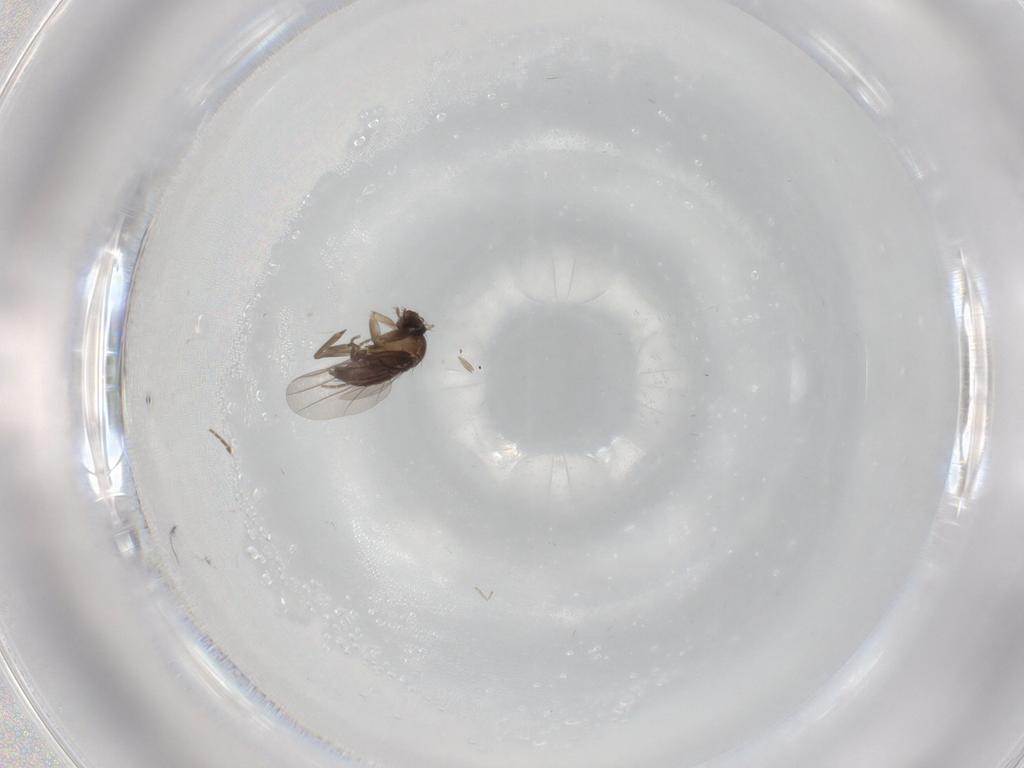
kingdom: Animalia
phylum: Arthropoda
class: Insecta
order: Diptera
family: Limoniidae
